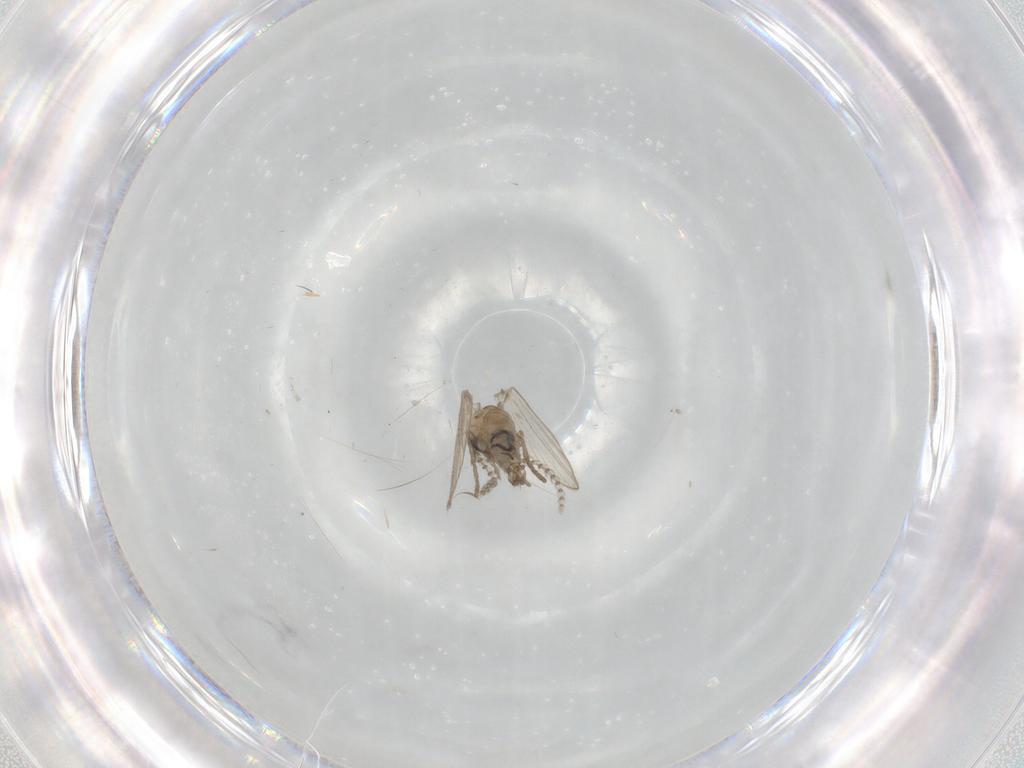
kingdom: Animalia
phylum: Arthropoda
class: Insecta
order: Diptera
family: Psychodidae
